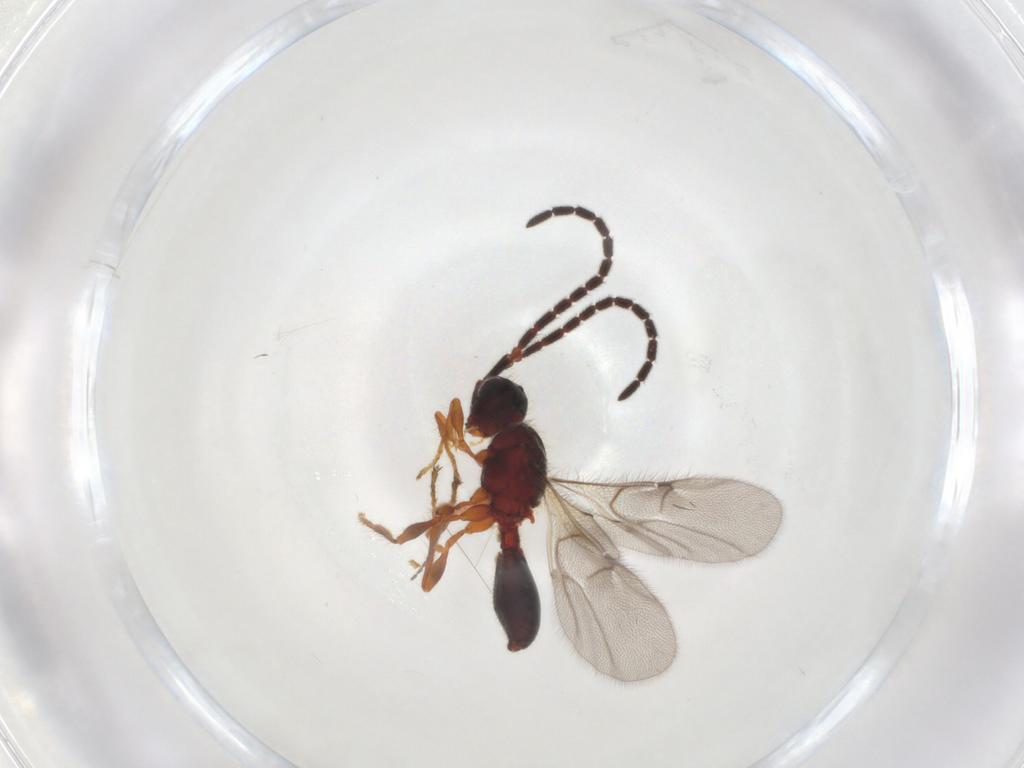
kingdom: Animalia
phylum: Arthropoda
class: Insecta
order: Hymenoptera
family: Diapriidae
